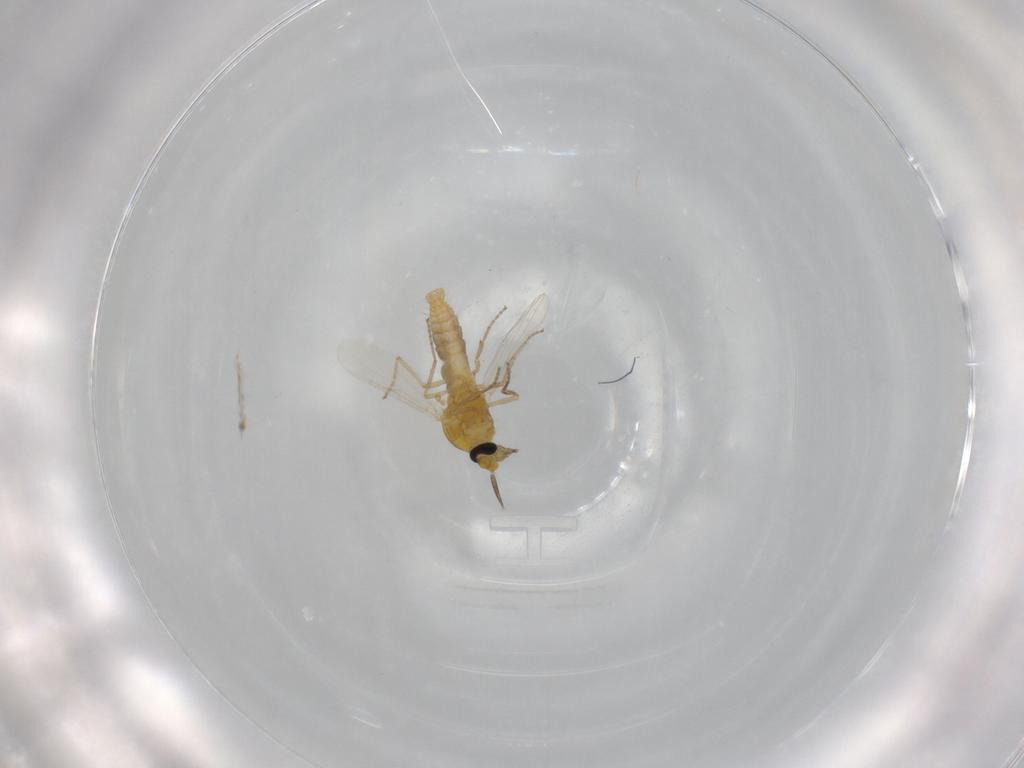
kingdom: Animalia
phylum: Arthropoda
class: Insecta
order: Diptera
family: Ceratopogonidae
